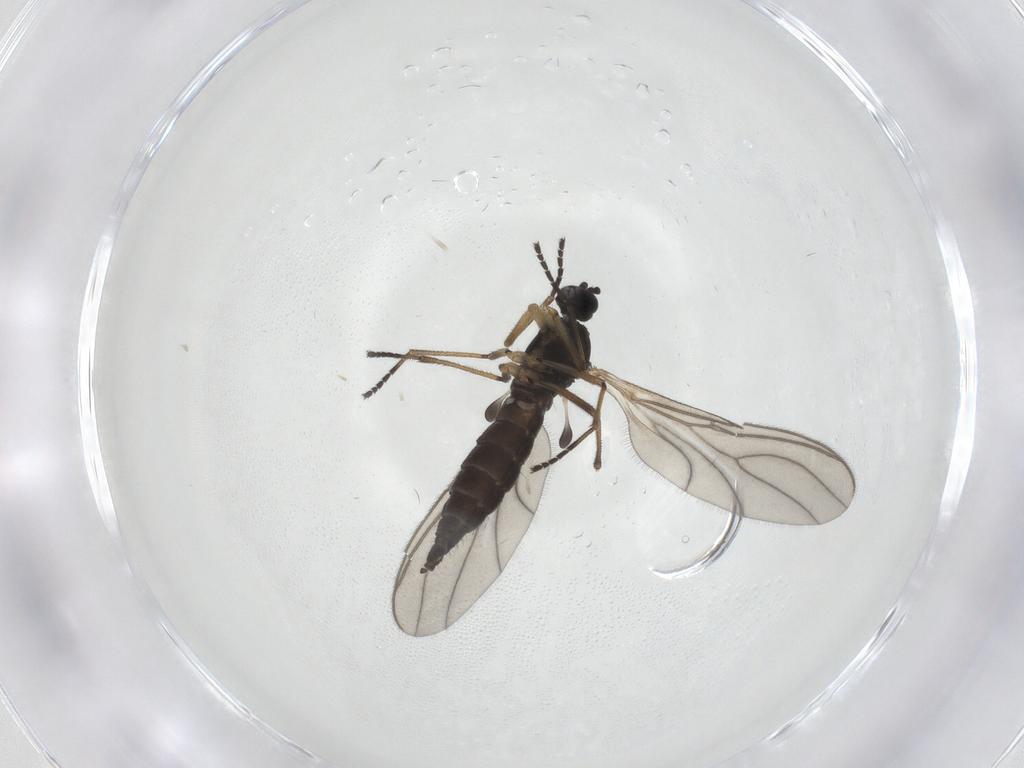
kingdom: Animalia
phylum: Arthropoda
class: Insecta
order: Diptera
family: Sciaridae
